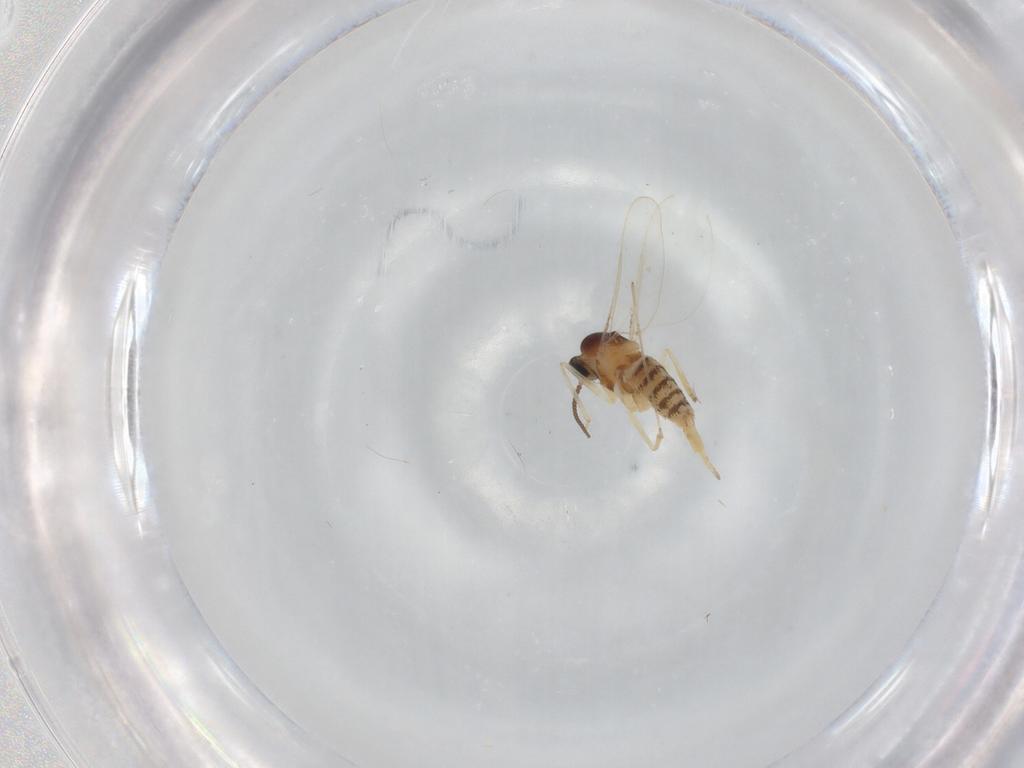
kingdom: Animalia
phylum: Arthropoda
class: Insecta
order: Diptera
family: Cecidomyiidae
